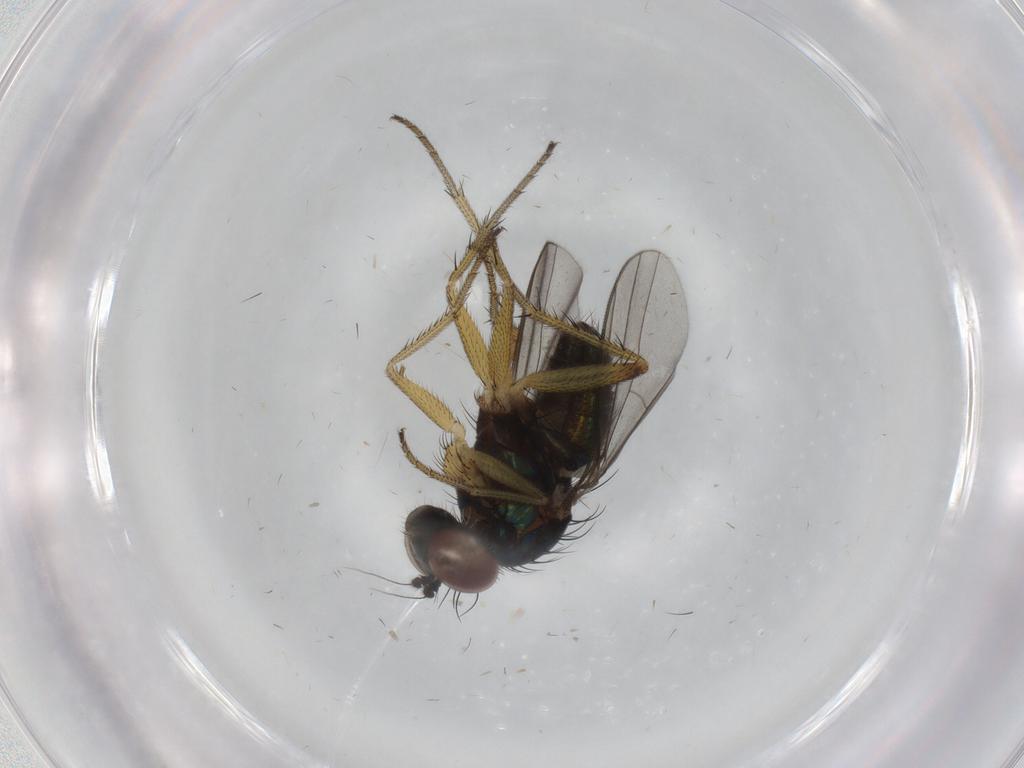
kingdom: Animalia
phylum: Arthropoda
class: Insecta
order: Diptera
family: Dolichopodidae
